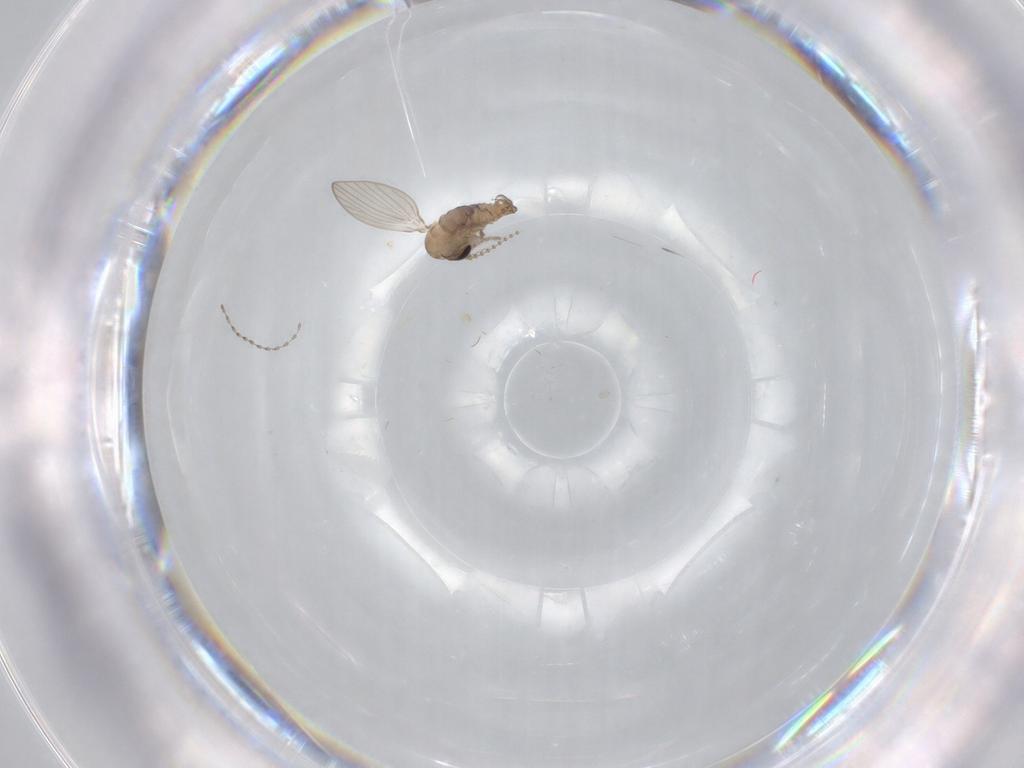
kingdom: Animalia
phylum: Arthropoda
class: Insecta
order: Diptera
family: Psychodidae
